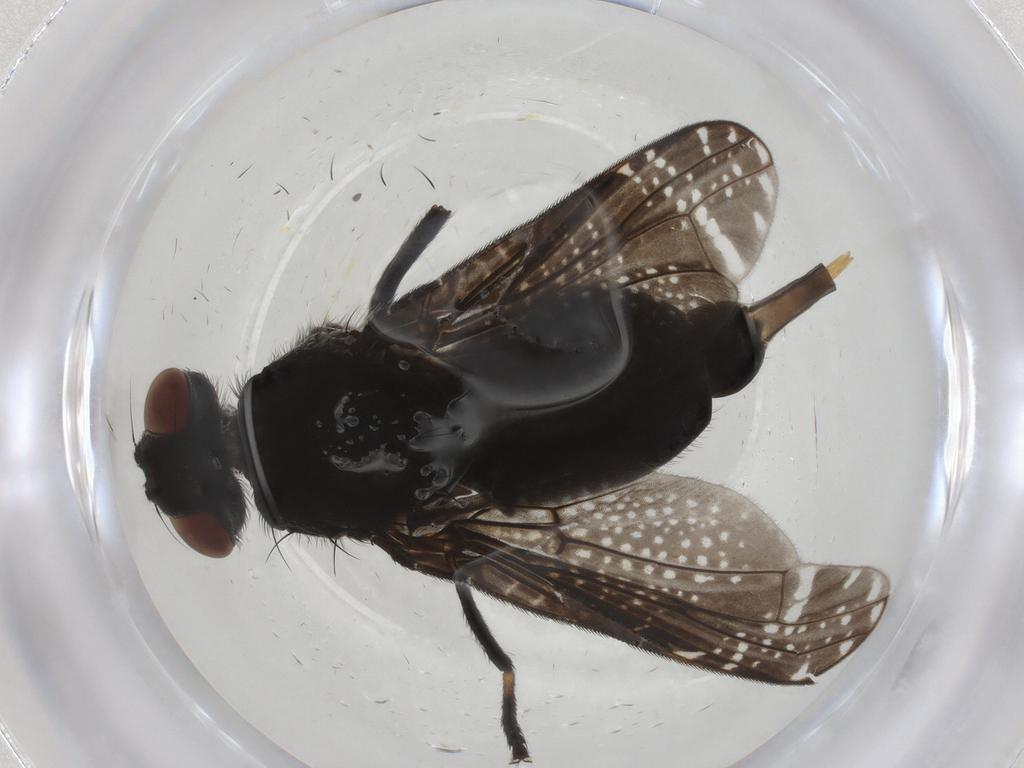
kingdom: Animalia
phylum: Arthropoda
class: Insecta
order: Diptera
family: Platystomatidae
